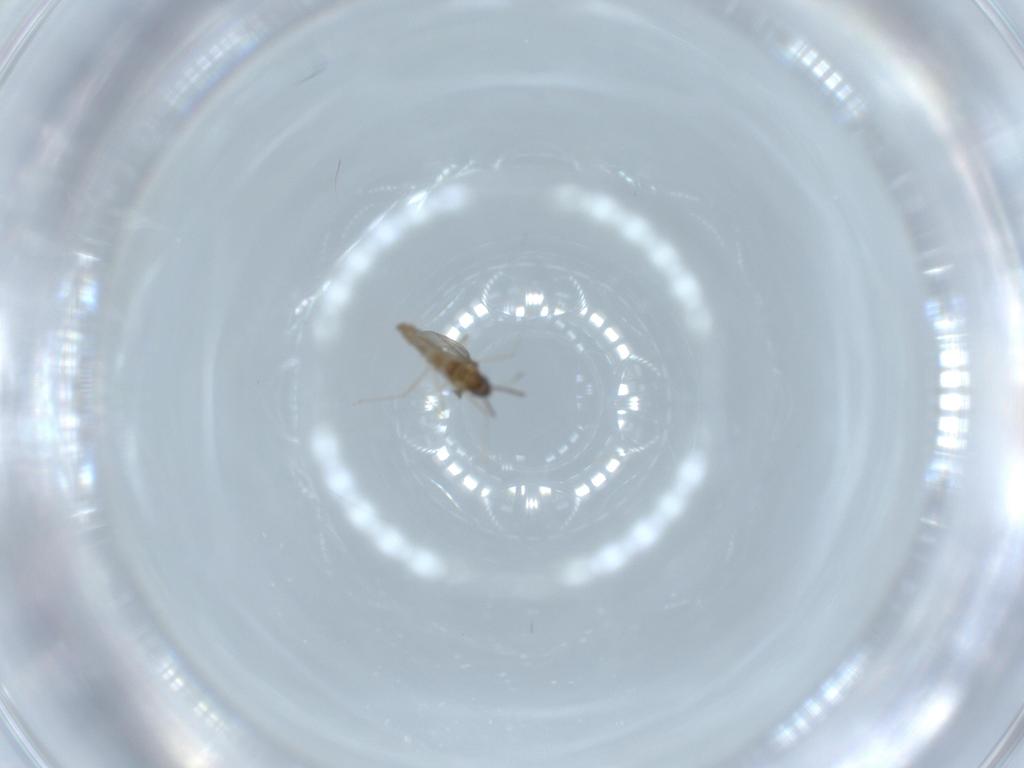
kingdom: Animalia
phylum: Arthropoda
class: Insecta
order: Diptera
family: Cecidomyiidae
